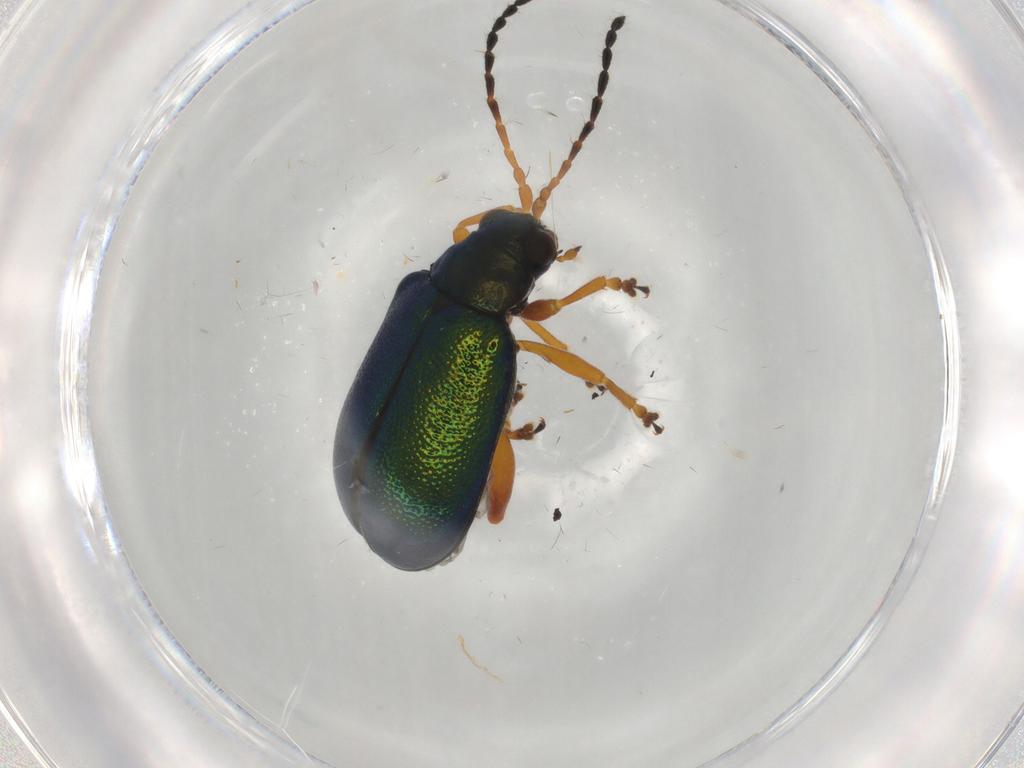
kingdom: Animalia
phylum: Arthropoda
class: Insecta
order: Coleoptera
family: Chrysomelidae
